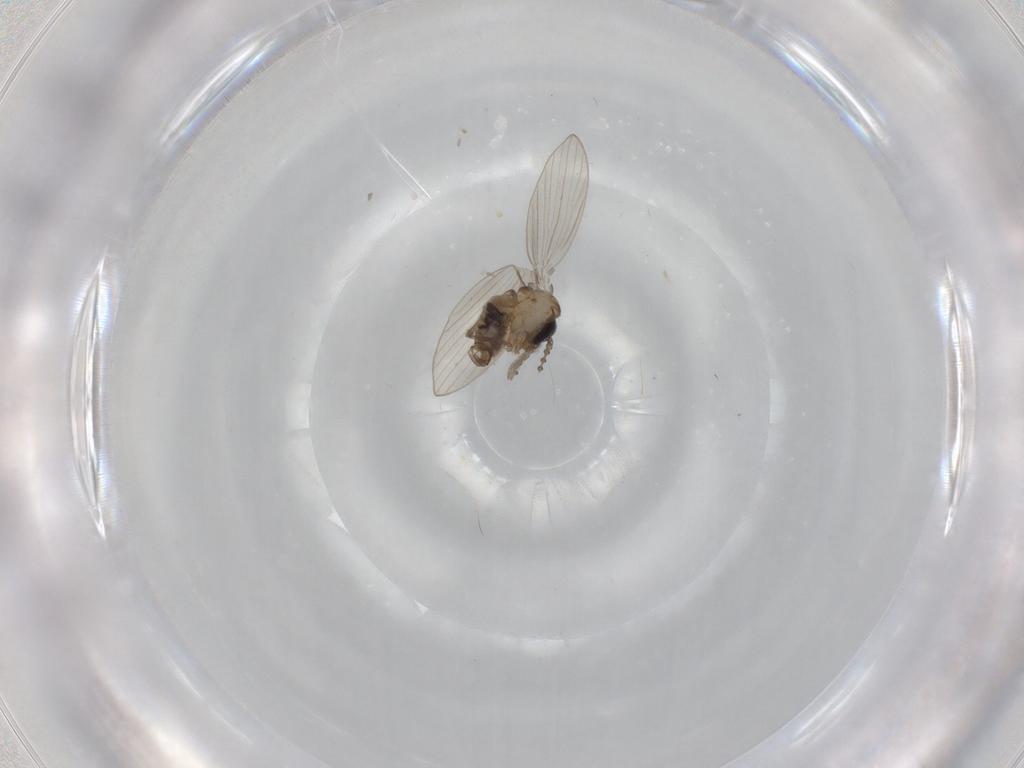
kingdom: Animalia
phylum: Arthropoda
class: Insecta
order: Diptera
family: Psychodidae
